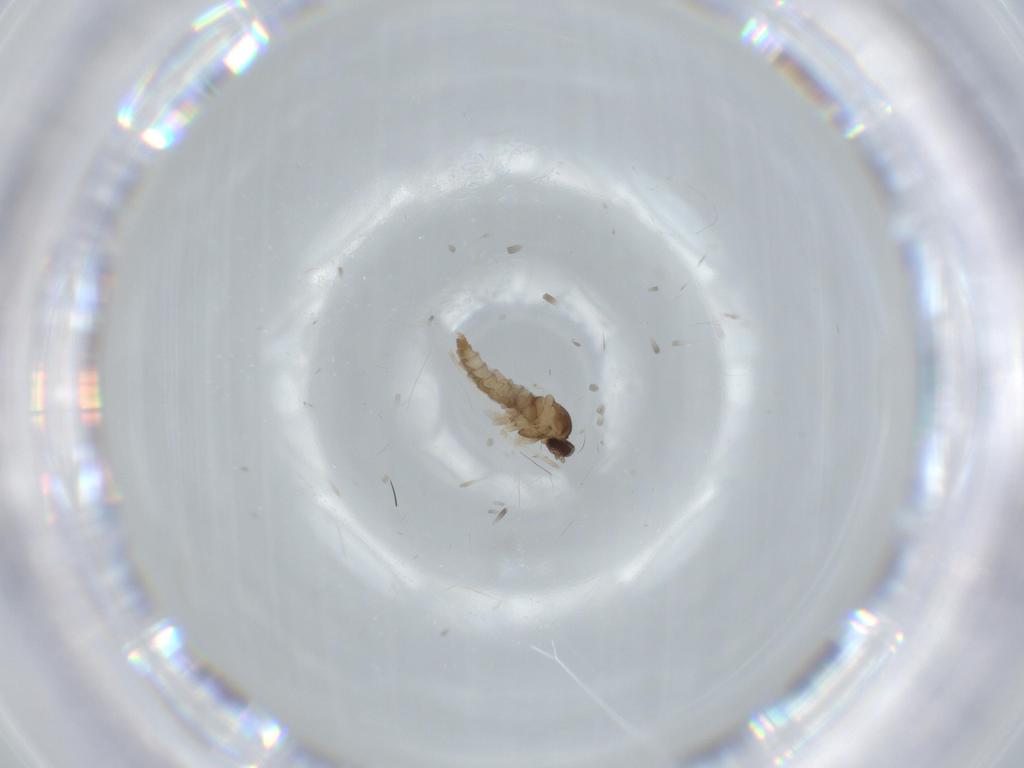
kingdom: Animalia
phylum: Arthropoda
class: Insecta
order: Diptera
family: Cecidomyiidae
